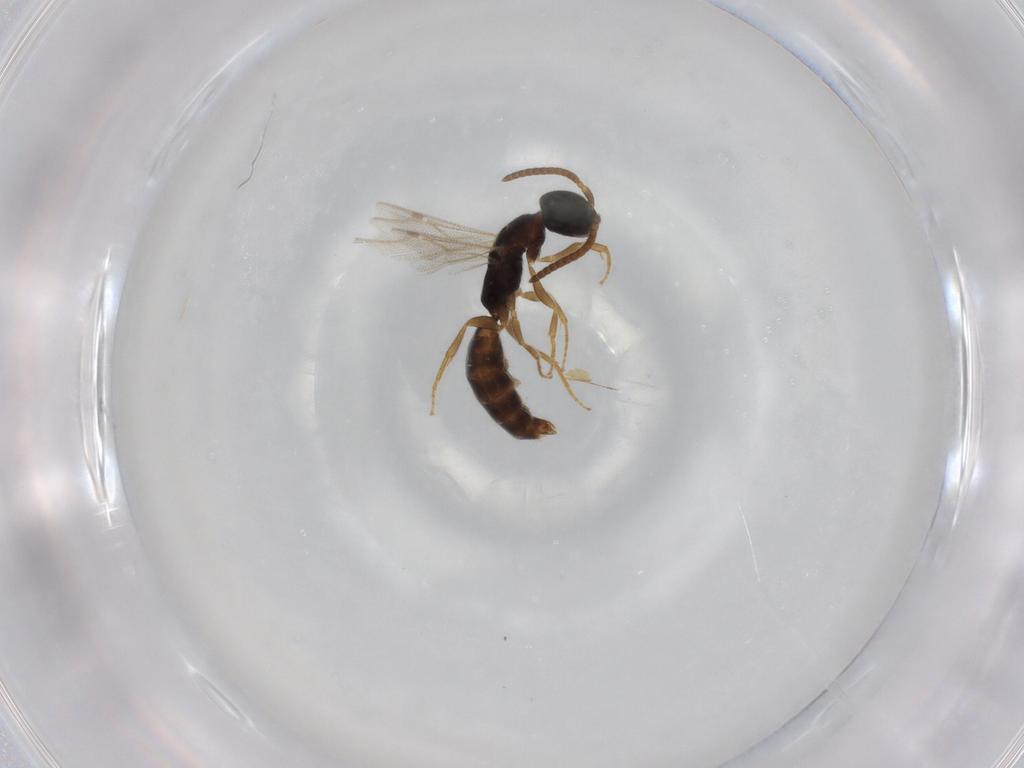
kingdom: Animalia
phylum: Arthropoda
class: Insecta
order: Hymenoptera
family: Bethylidae
